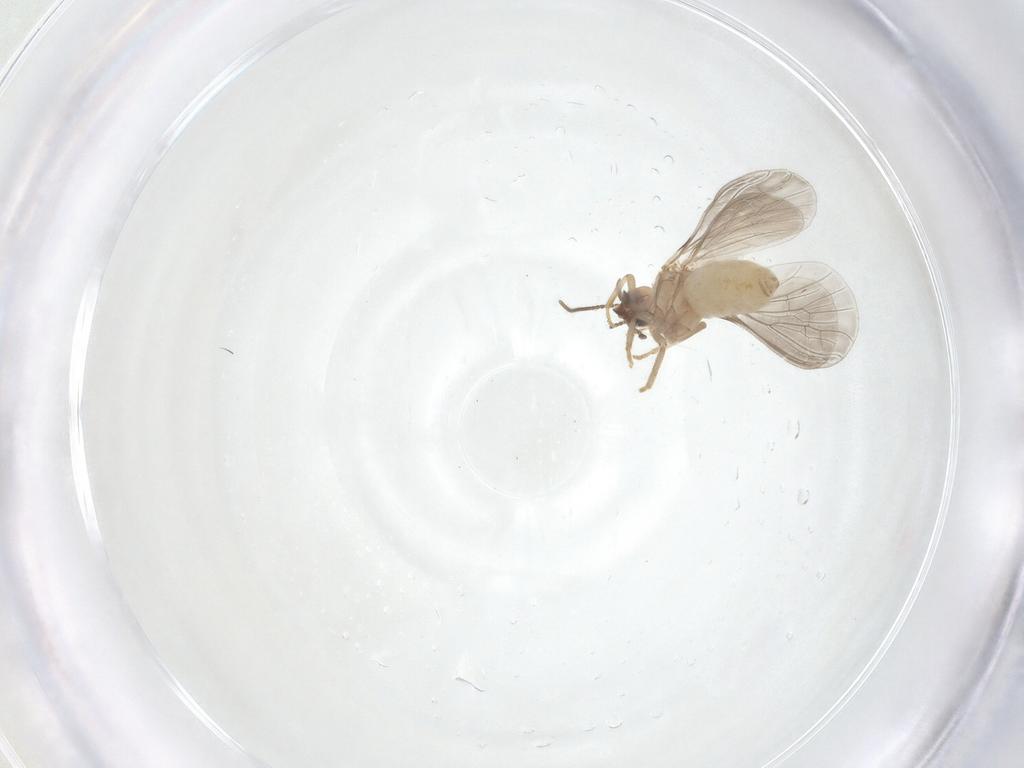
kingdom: Animalia
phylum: Arthropoda
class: Insecta
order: Neuroptera
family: Coniopterygidae
